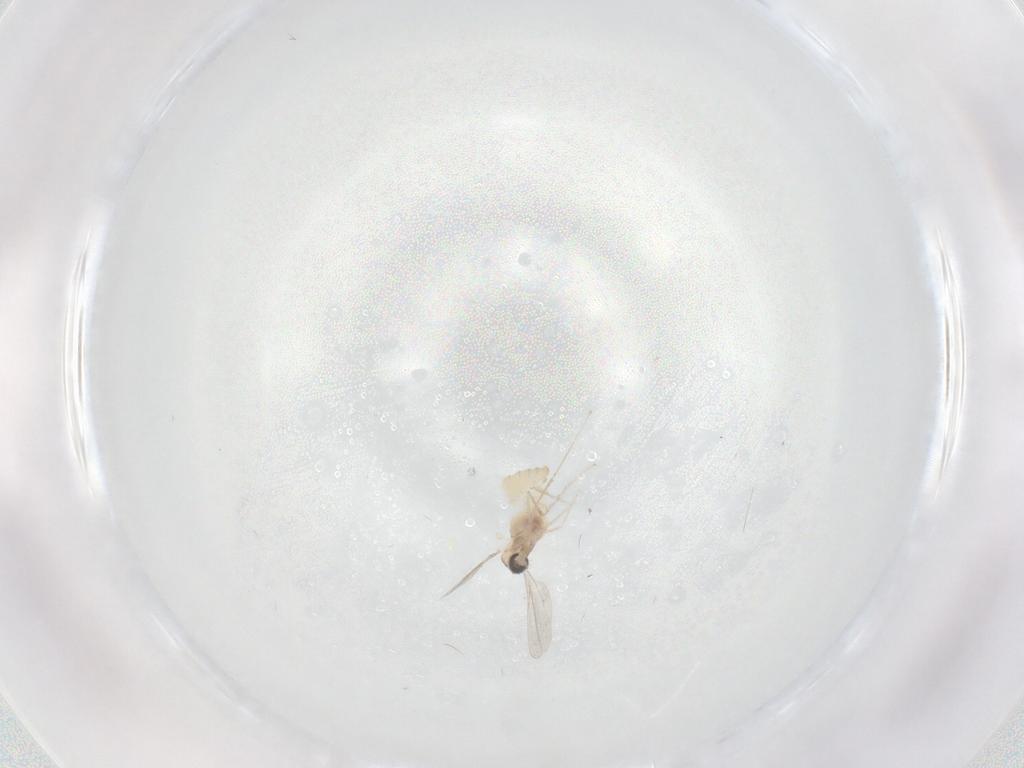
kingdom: Animalia
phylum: Arthropoda
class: Insecta
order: Diptera
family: Cecidomyiidae
